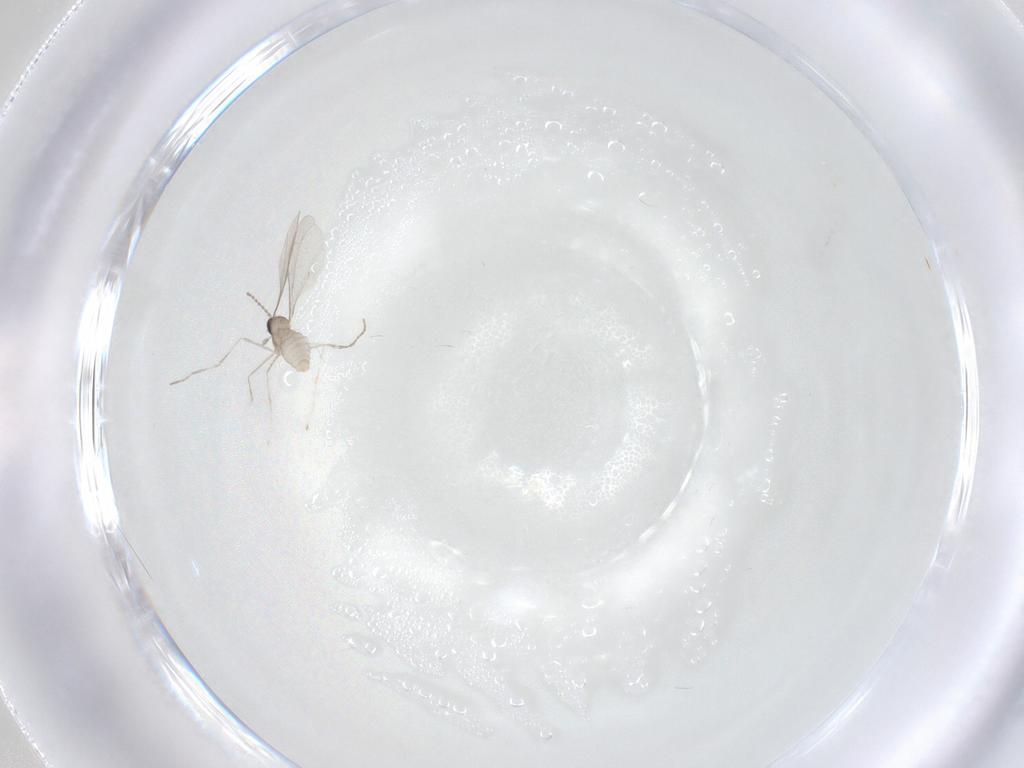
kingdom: Animalia
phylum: Arthropoda
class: Insecta
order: Diptera
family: Cecidomyiidae
